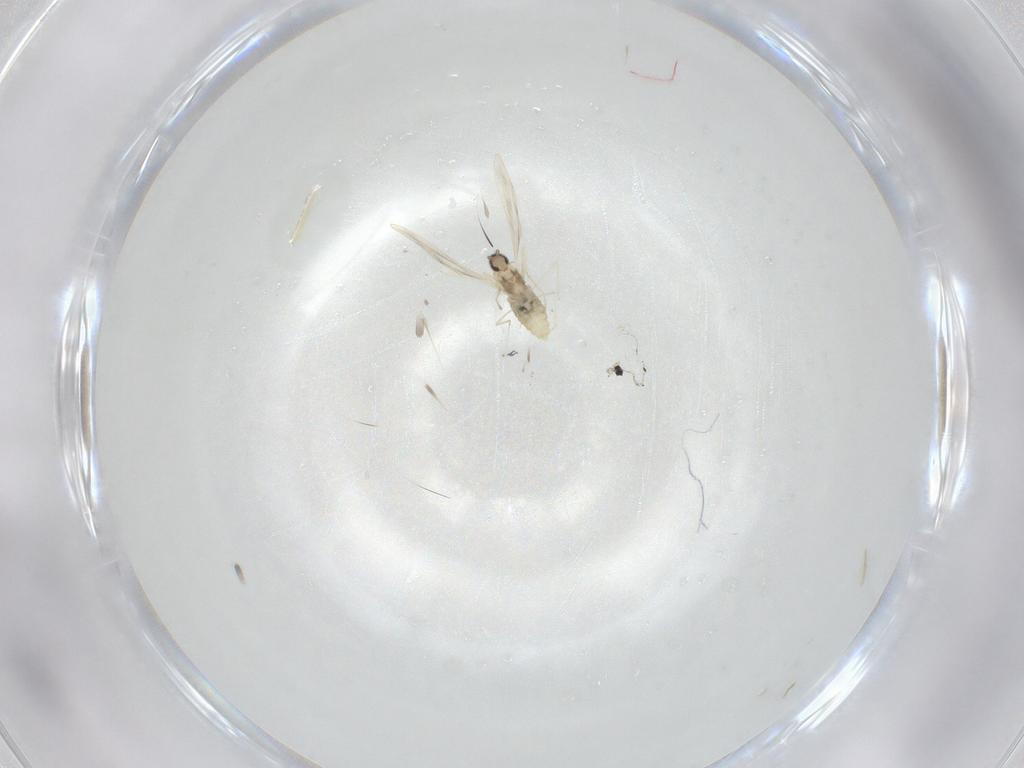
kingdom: Animalia
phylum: Arthropoda
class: Insecta
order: Diptera
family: Cecidomyiidae
